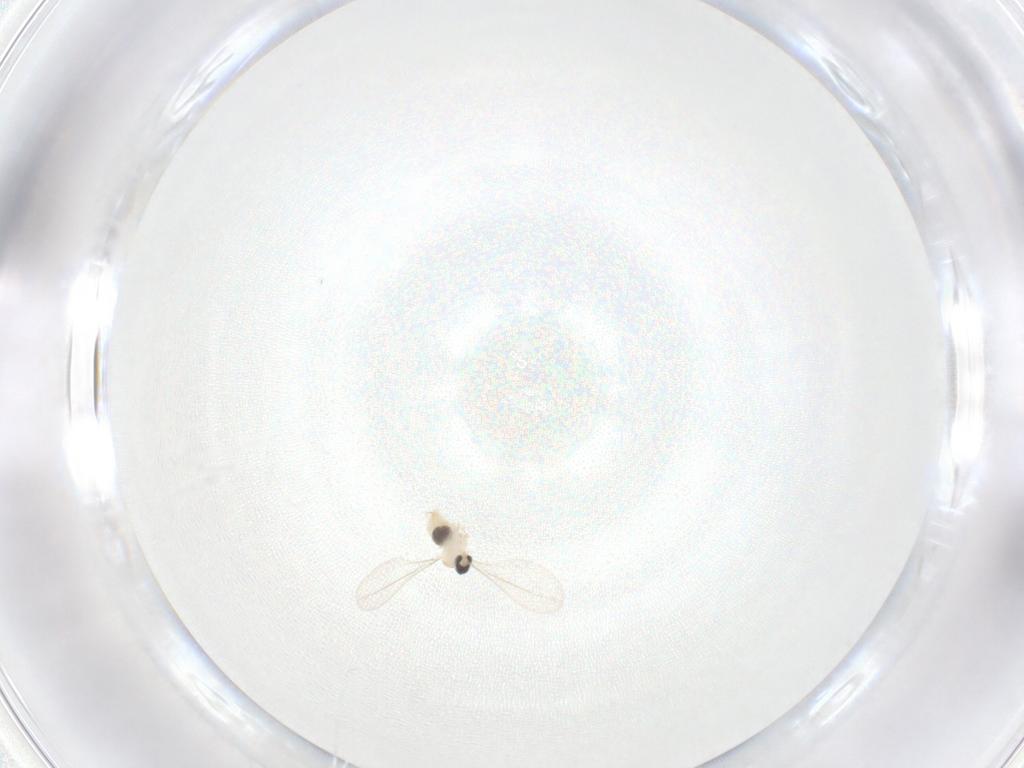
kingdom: Animalia
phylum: Arthropoda
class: Insecta
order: Diptera
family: Cecidomyiidae
